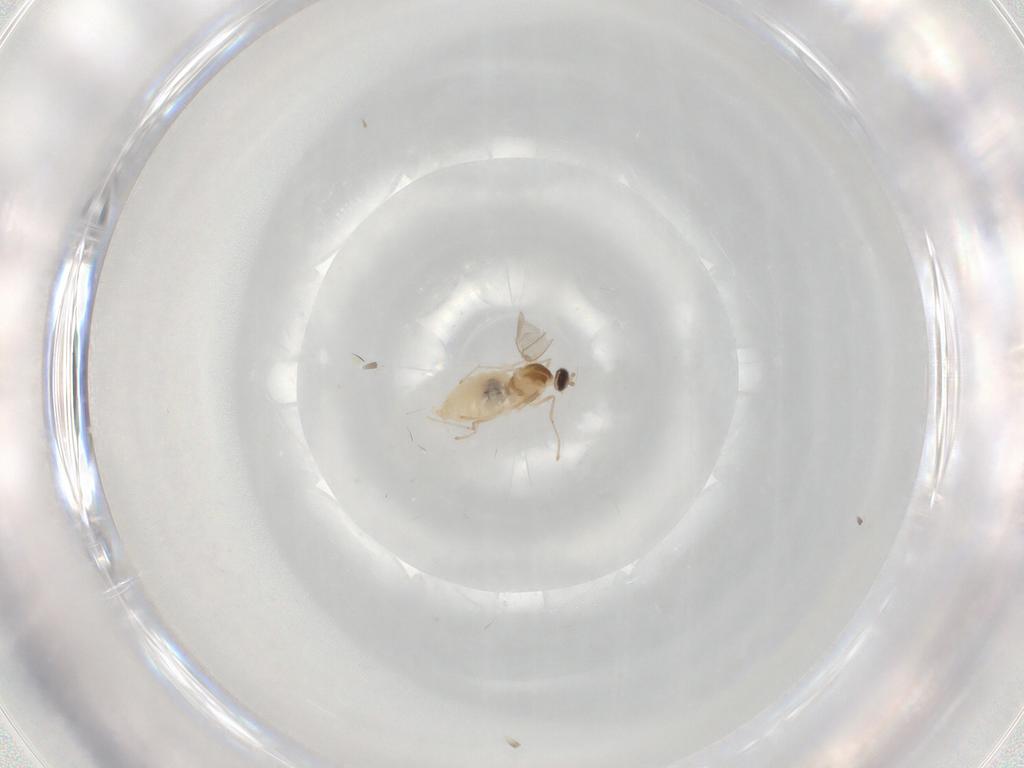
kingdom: Animalia
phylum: Arthropoda
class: Insecta
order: Diptera
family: Cecidomyiidae
